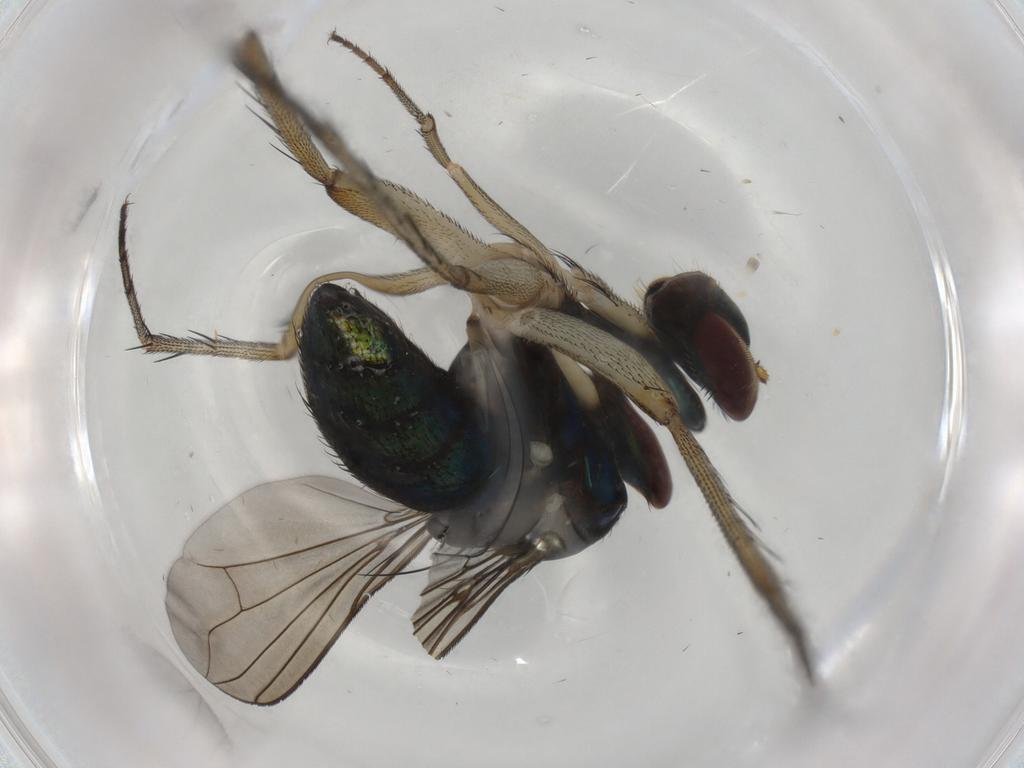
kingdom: Animalia
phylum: Arthropoda
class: Insecta
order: Diptera
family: Dolichopodidae
